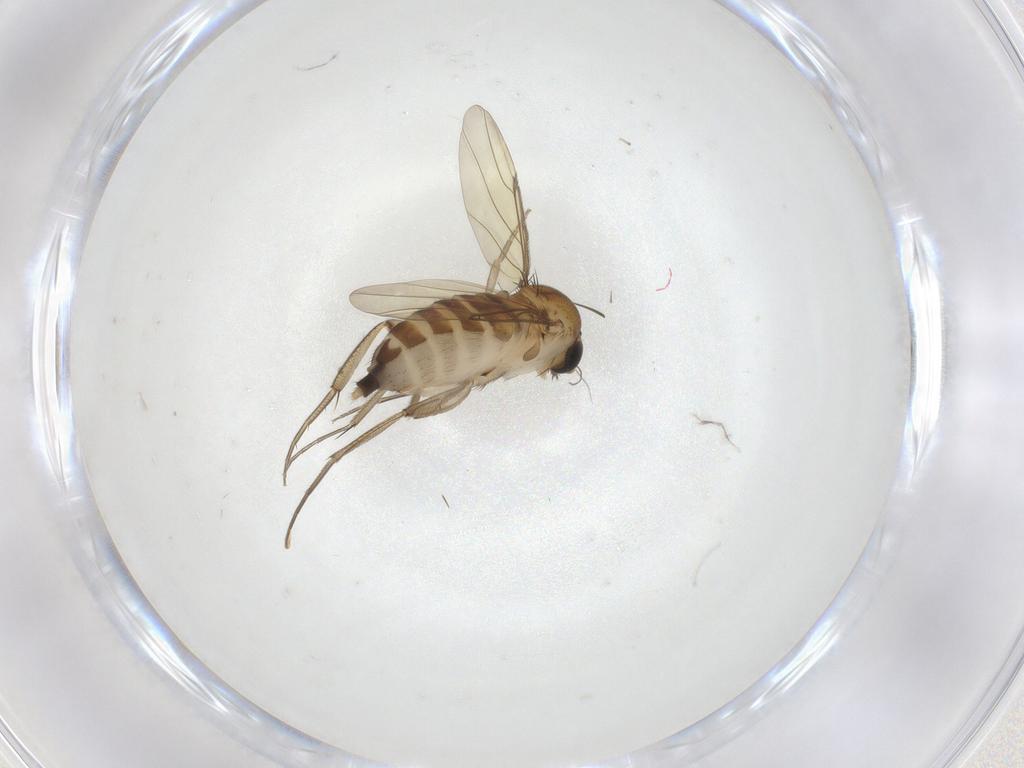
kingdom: Animalia
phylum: Arthropoda
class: Insecta
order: Diptera
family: Phoridae
